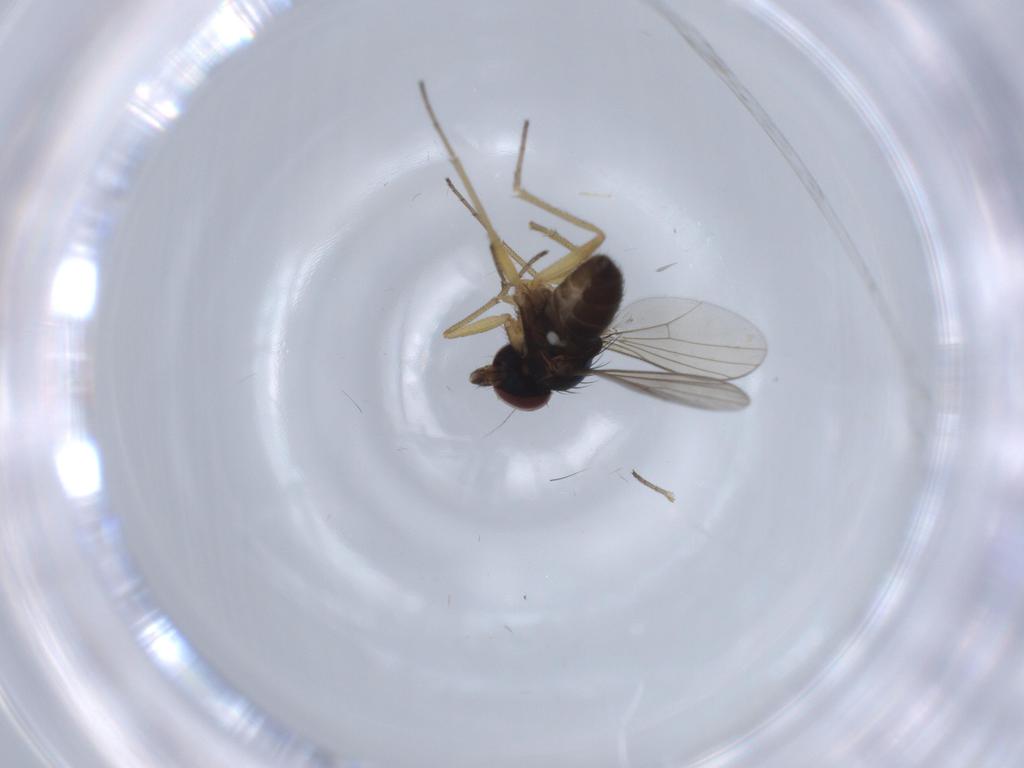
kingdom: Animalia
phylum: Arthropoda
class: Insecta
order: Diptera
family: Dolichopodidae
